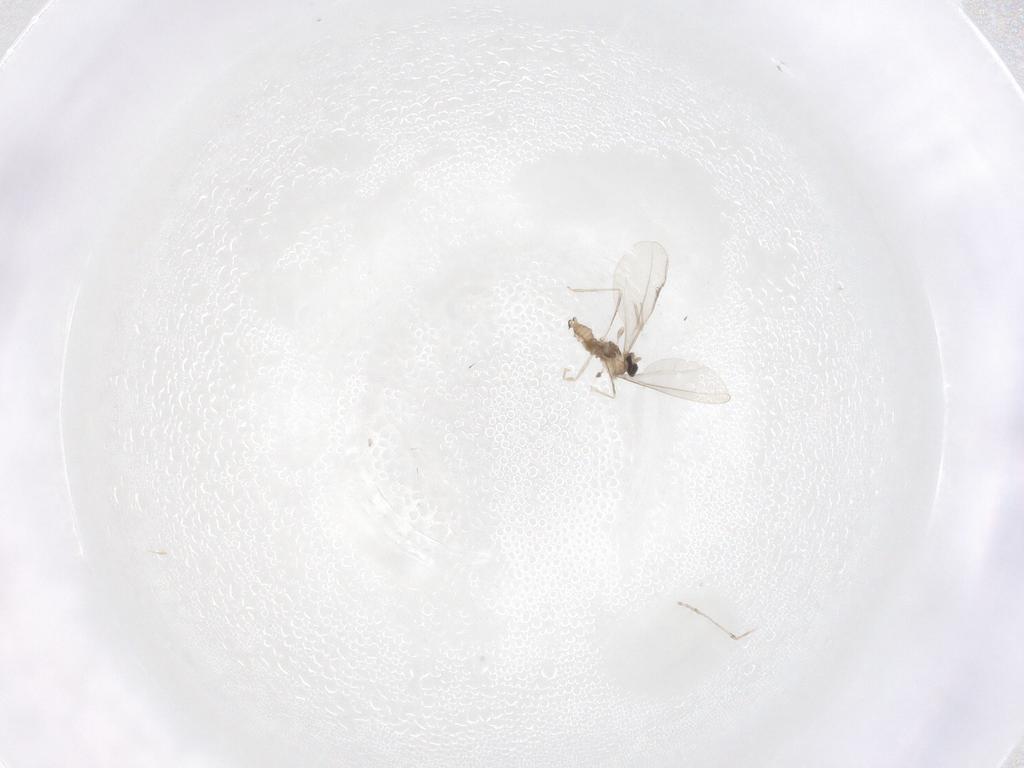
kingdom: Animalia
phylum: Arthropoda
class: Insecta
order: Diptera
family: Cecidomyiidae
